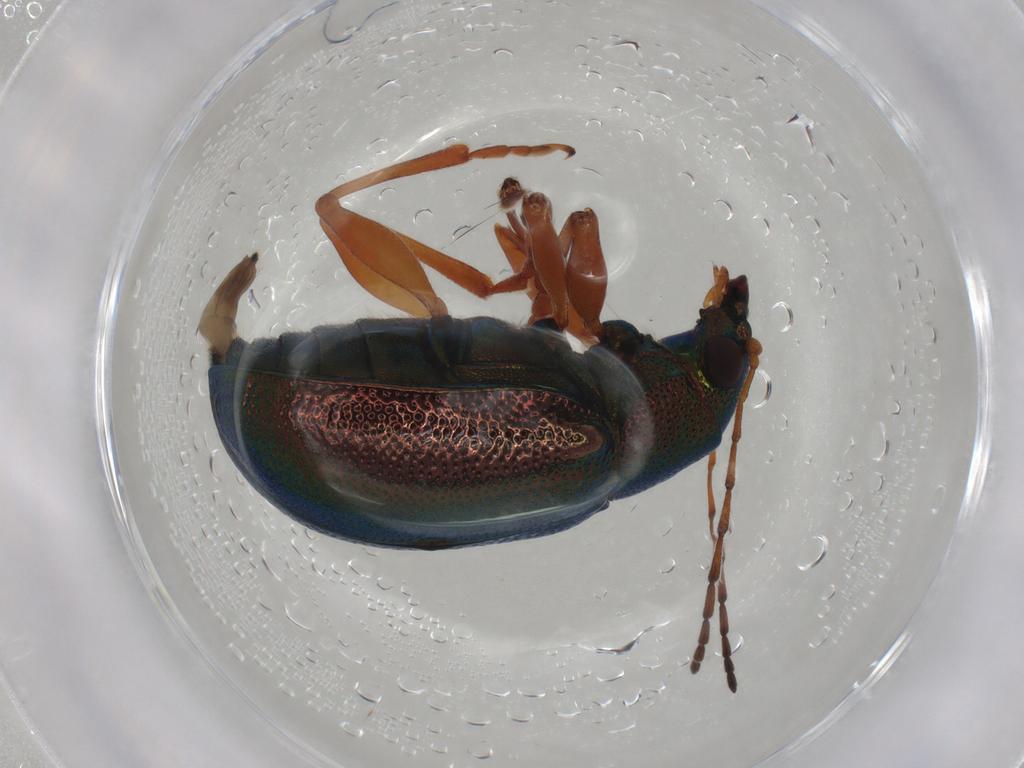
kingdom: Animalia
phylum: Arthropoda
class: Insecta
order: Coleoptera
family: Chrysomelidae
